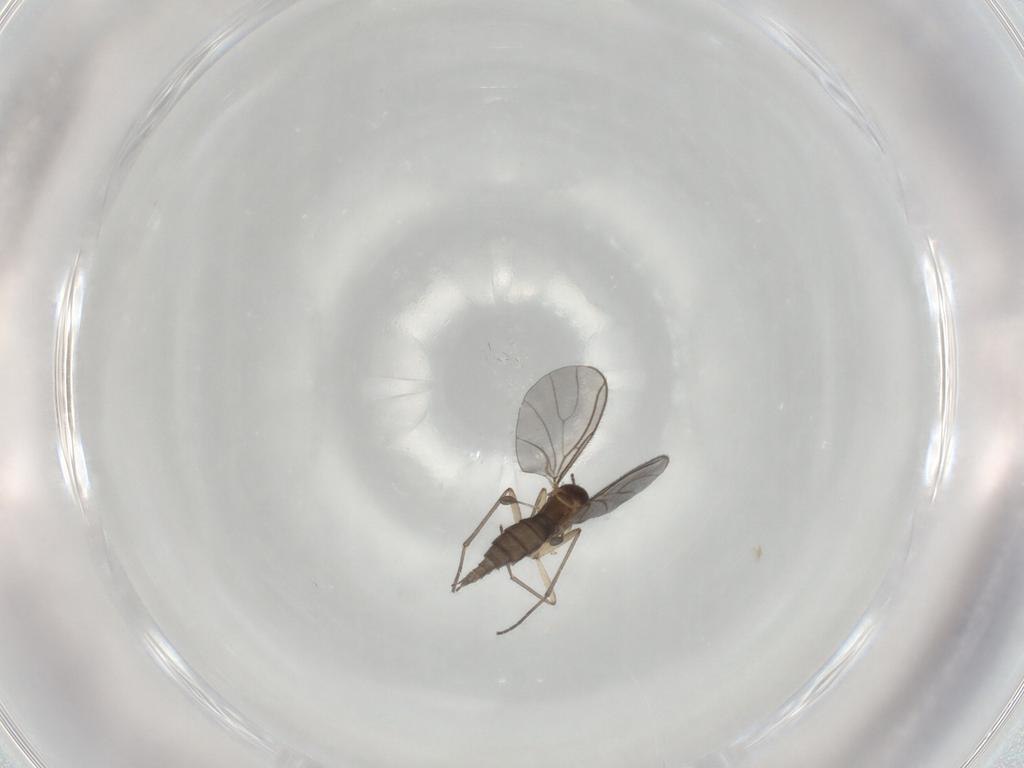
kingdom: Animalia
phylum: Arthropoda
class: Insecta
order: Diptera
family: Sciaridae
